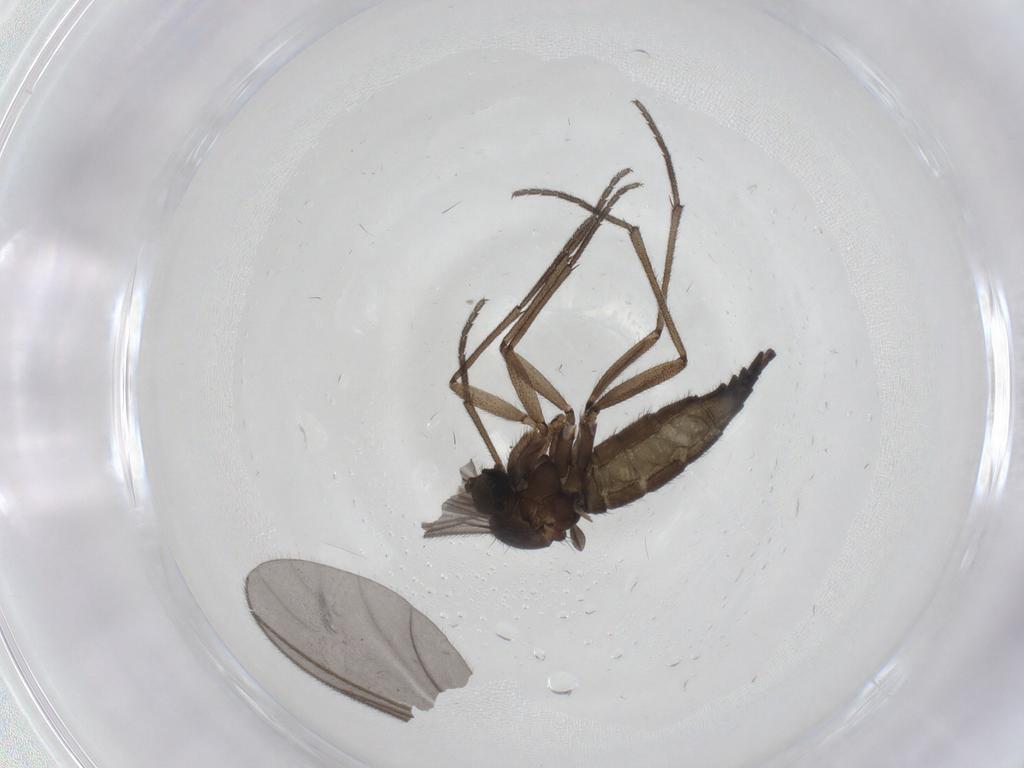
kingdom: Animalia
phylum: Arthropoda
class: Insecta
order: Diptera
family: Sciaridae
